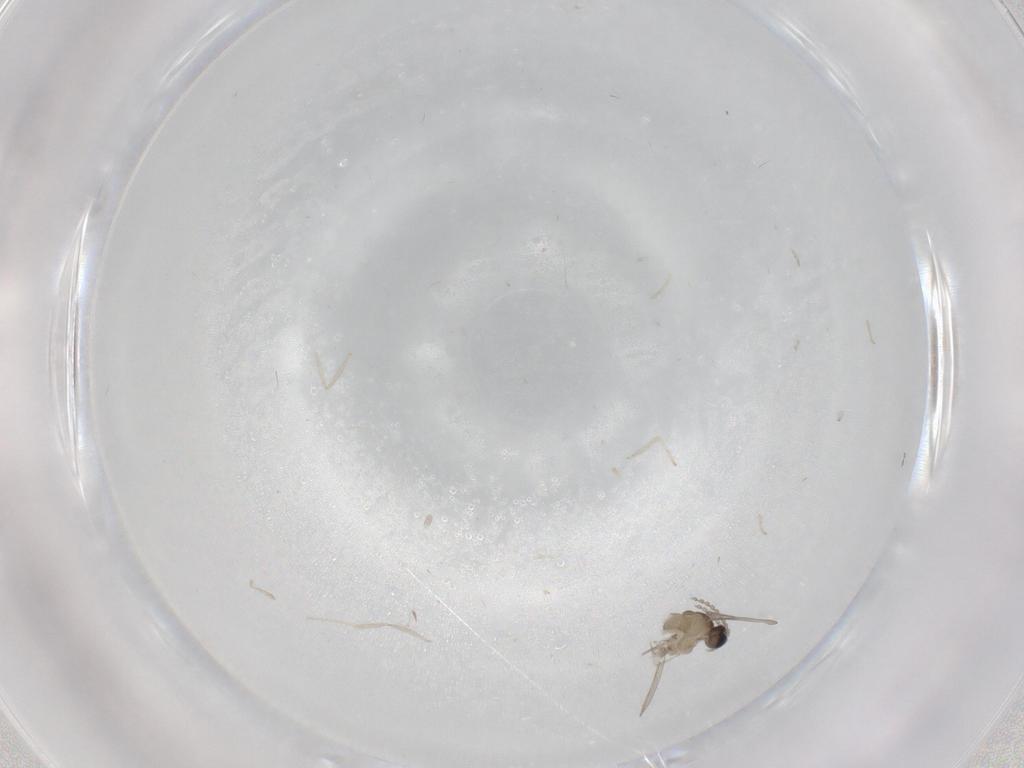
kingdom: Animalia
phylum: Arthropoda
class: Insecta
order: Diptera
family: Cecidomyiidae
